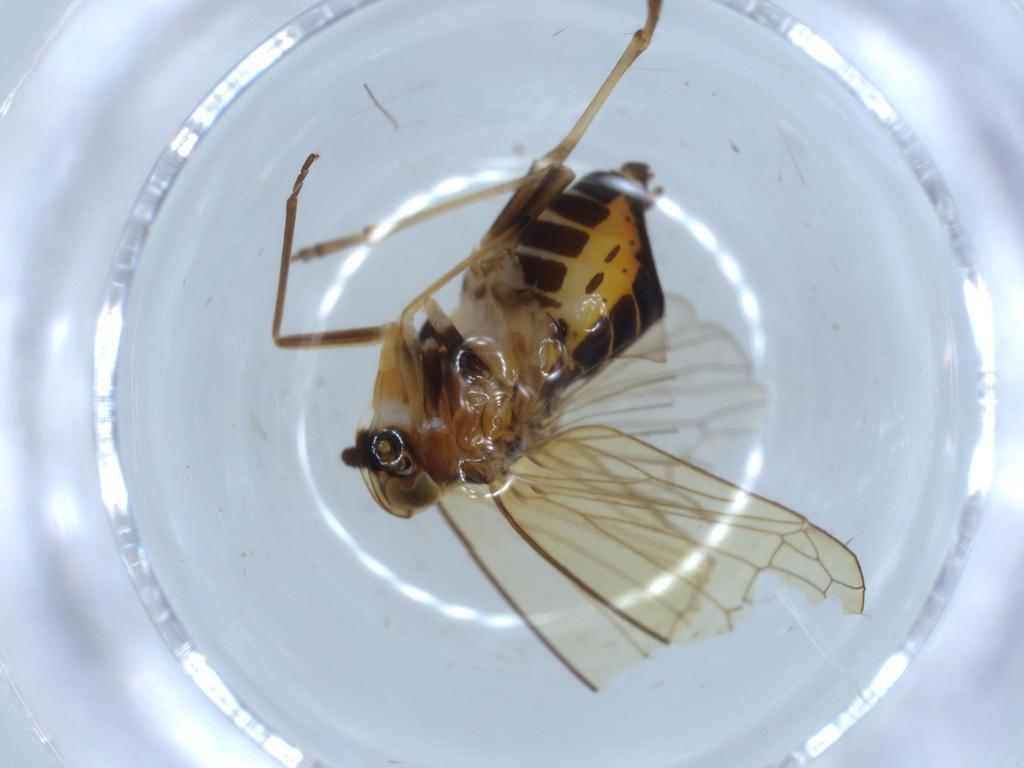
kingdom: Animalia
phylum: Arthropoda
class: Insecta
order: Hemiptera
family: Kinnaridae
